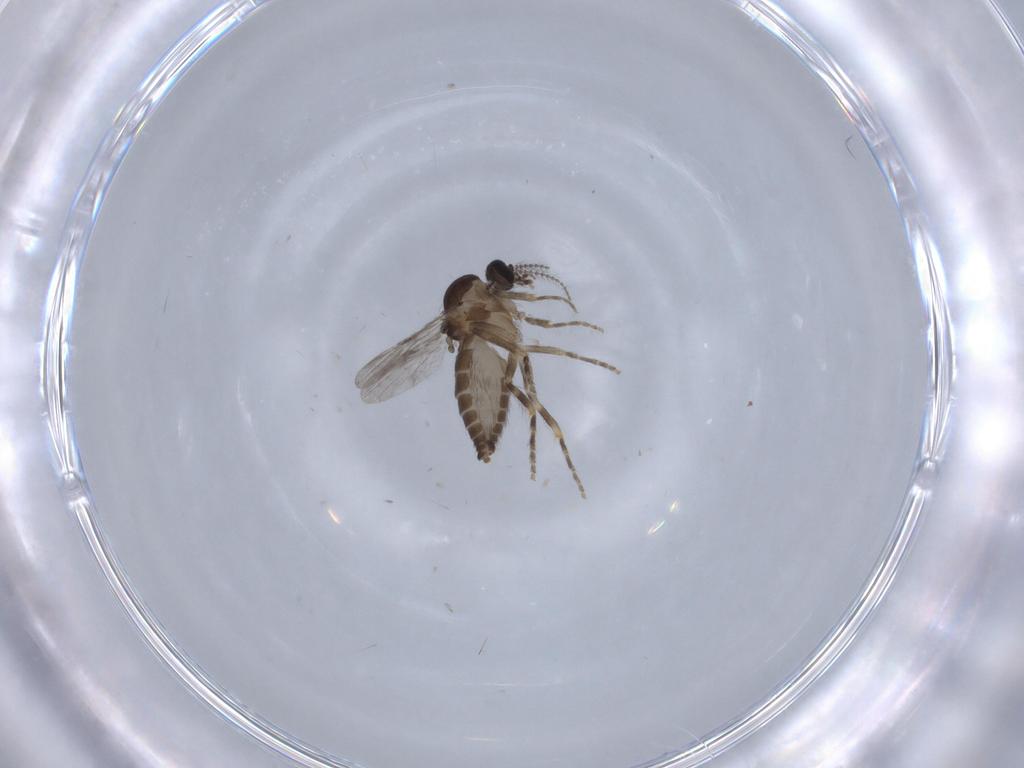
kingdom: Animalia
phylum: Arthropoda
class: Insecta
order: Diptera
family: Ceratopogonidae
